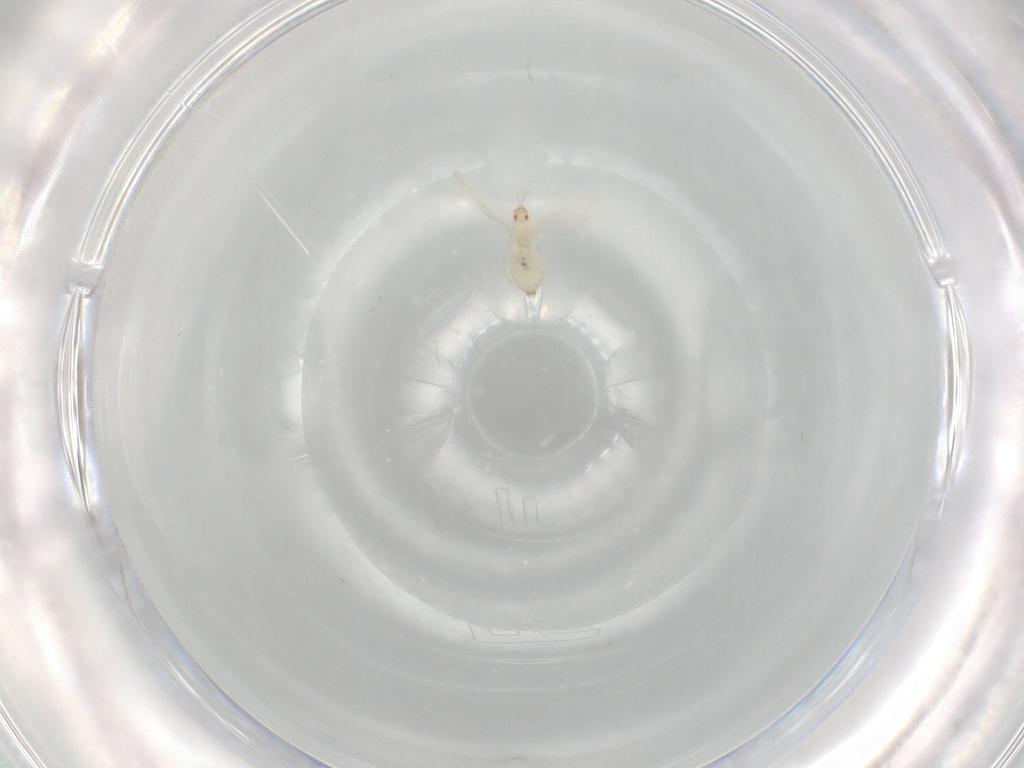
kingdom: Animalia
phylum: Arthropoda
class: Insecta
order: Diptera
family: Cecidomyiidae
